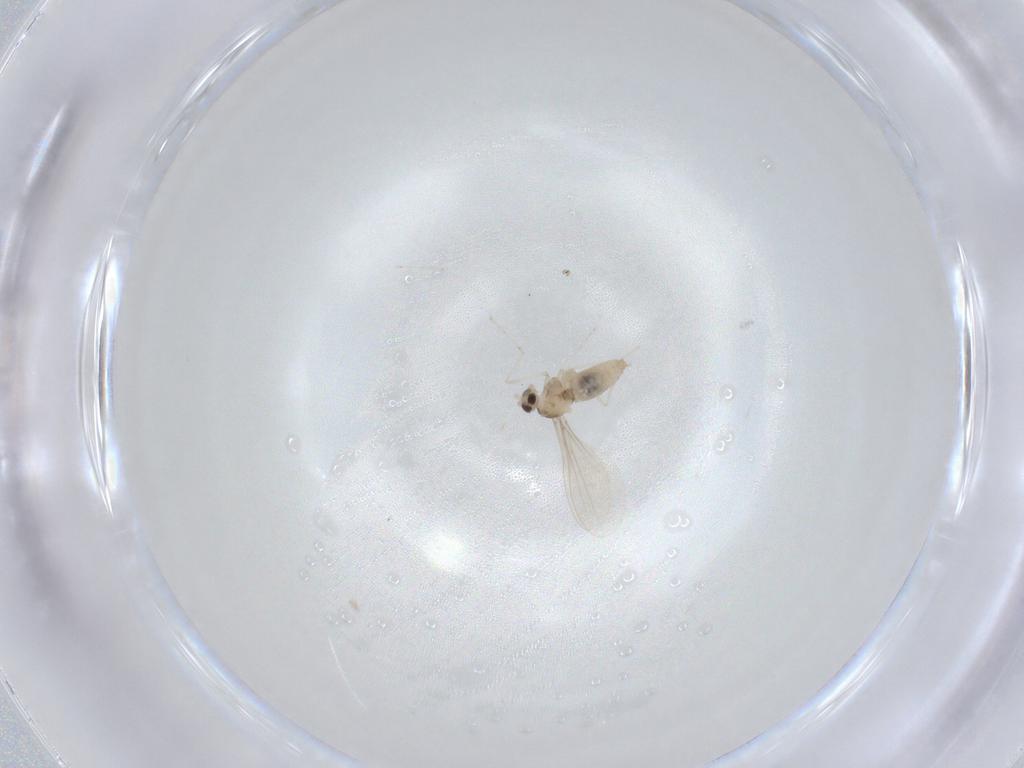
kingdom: Animalia
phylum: Arthropoda
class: Insecta
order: Diptera
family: Cecidomyiidae
